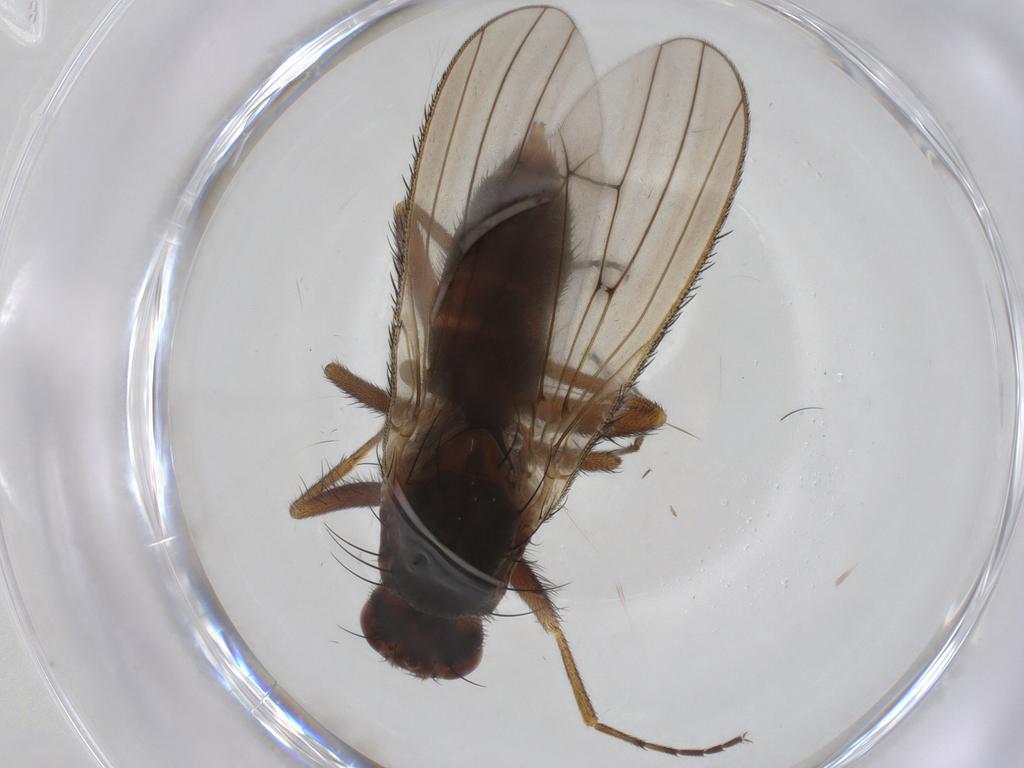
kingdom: Animalia
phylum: Arthropoda
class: Insecta
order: Diptera
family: Heleomyzidae
